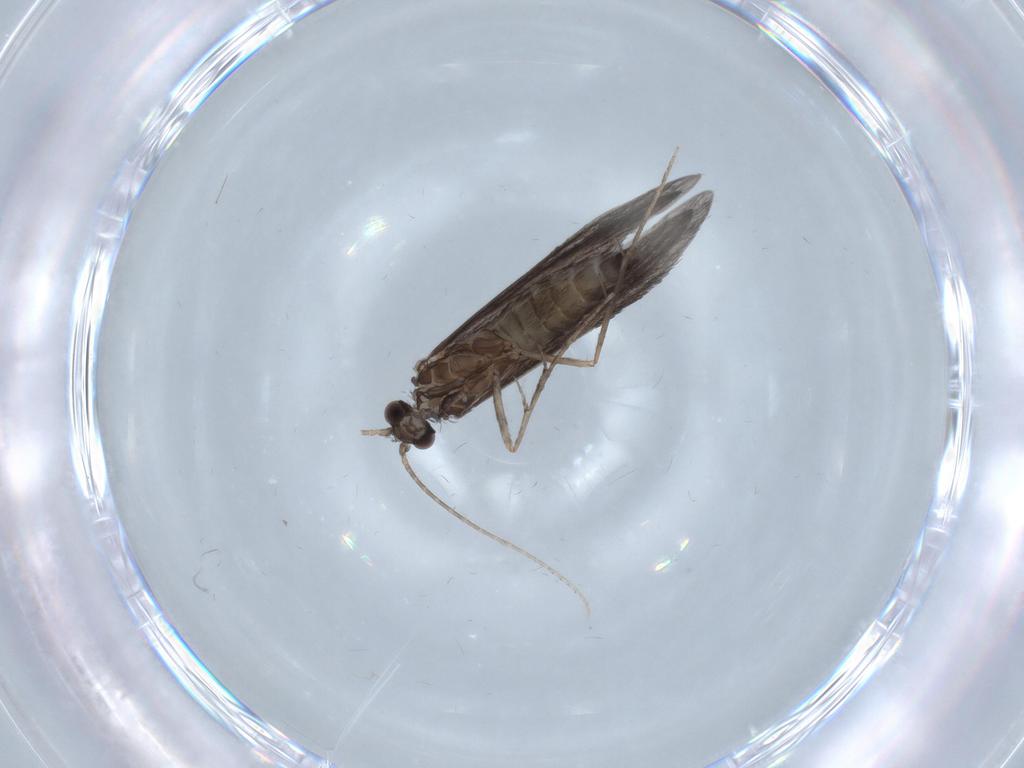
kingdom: Animalia
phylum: Arthropoda
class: Insecta
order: Trichoptera
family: Xiphocentronidae
